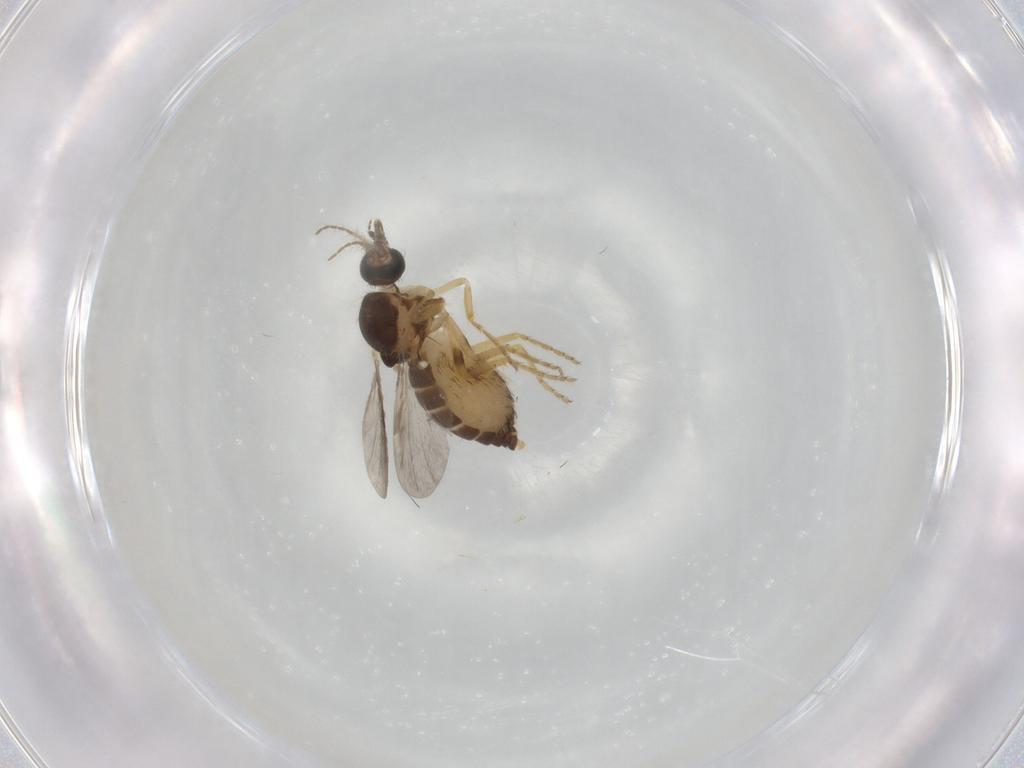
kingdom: Animalia
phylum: Arthropoda
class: Insecta
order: Diptera
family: Ceratopogonidae
